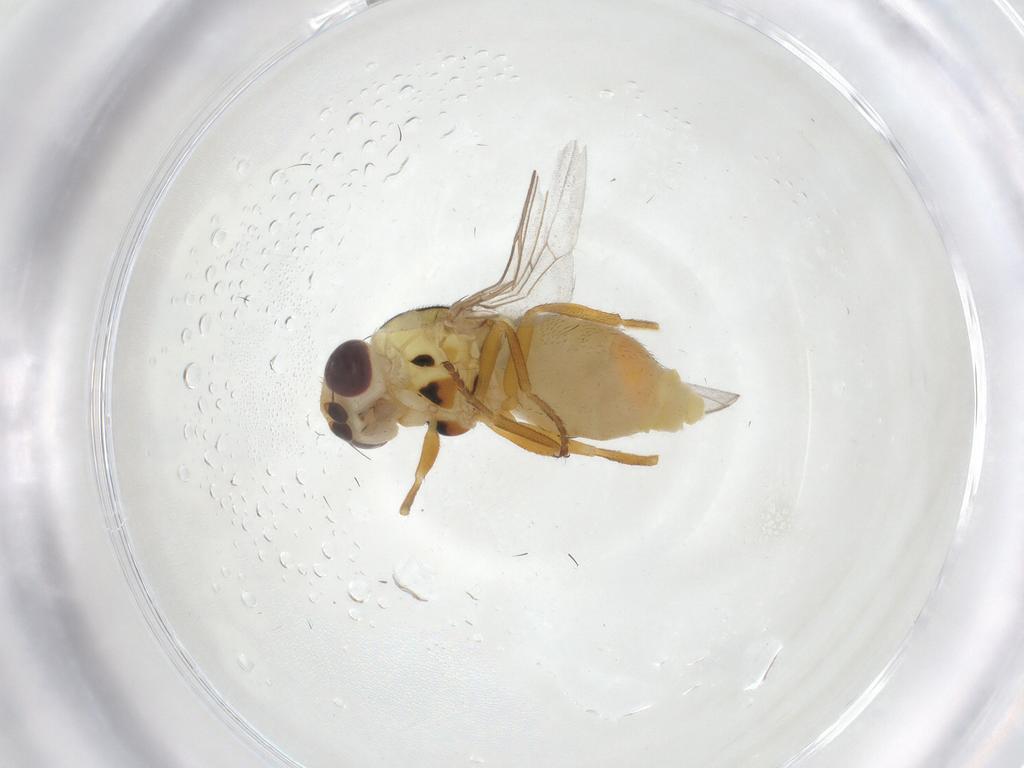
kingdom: Animalia
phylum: Arthropoda
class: Insecta
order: Diptera
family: Chloropidae
